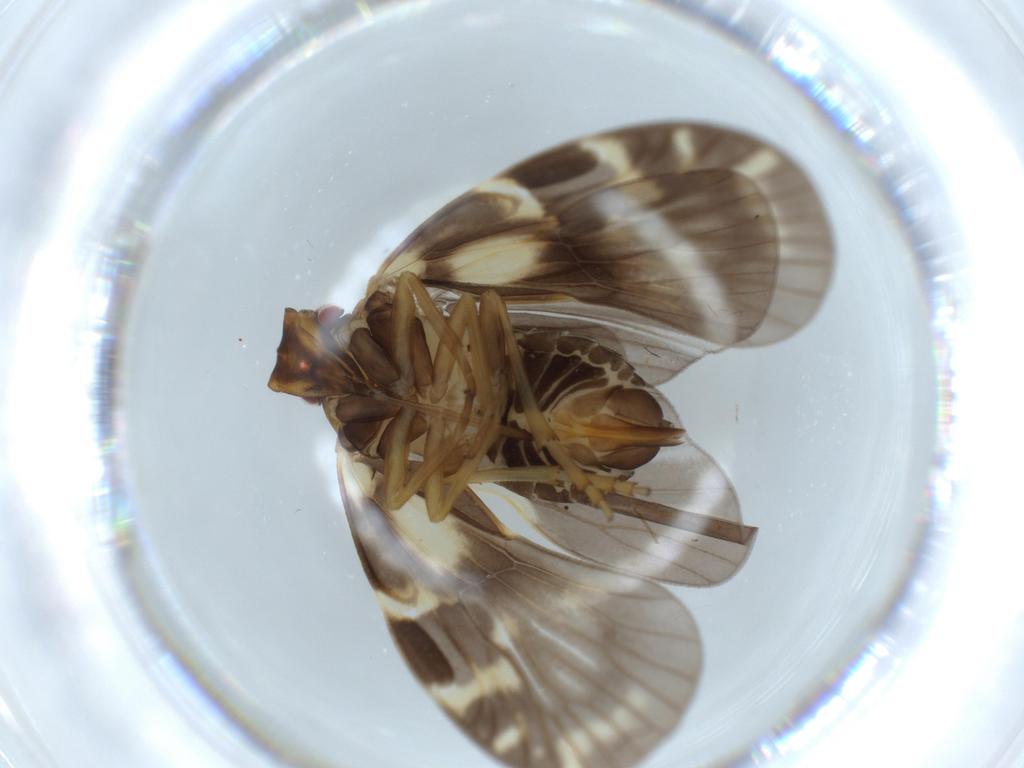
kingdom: Animalia
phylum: Arthropoda
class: Insecta
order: Hemiptera
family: Cixiidae
